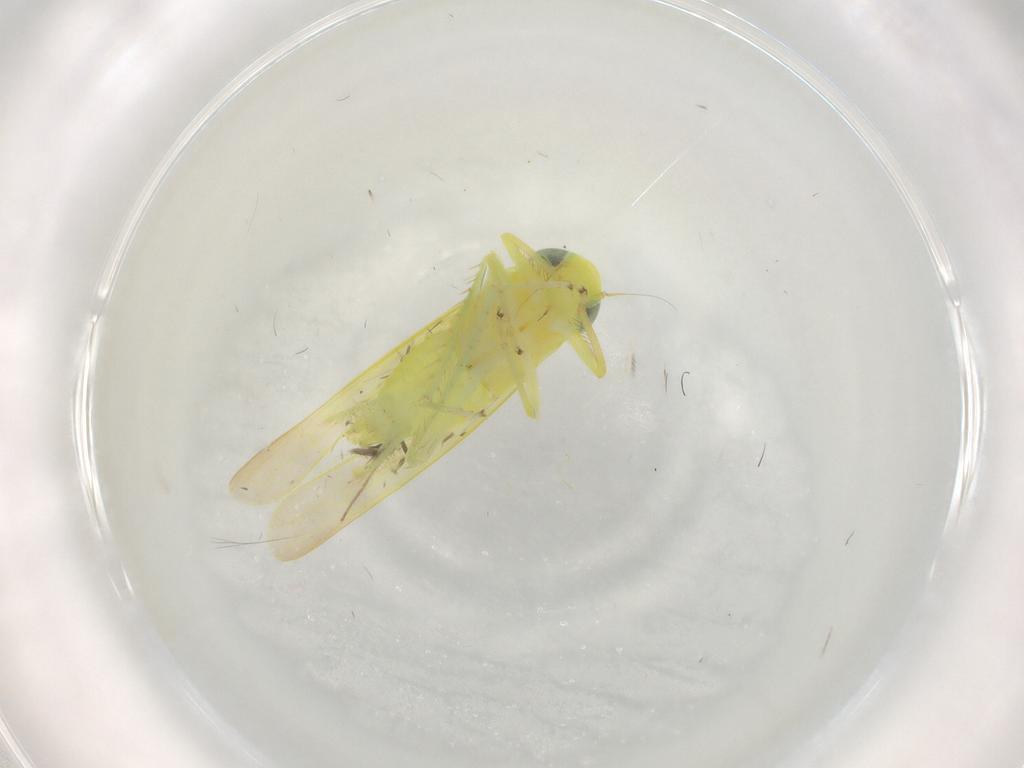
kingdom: Animalia
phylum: Arthropoda
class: Insecta
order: Hemiptera
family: Cicadellidae
